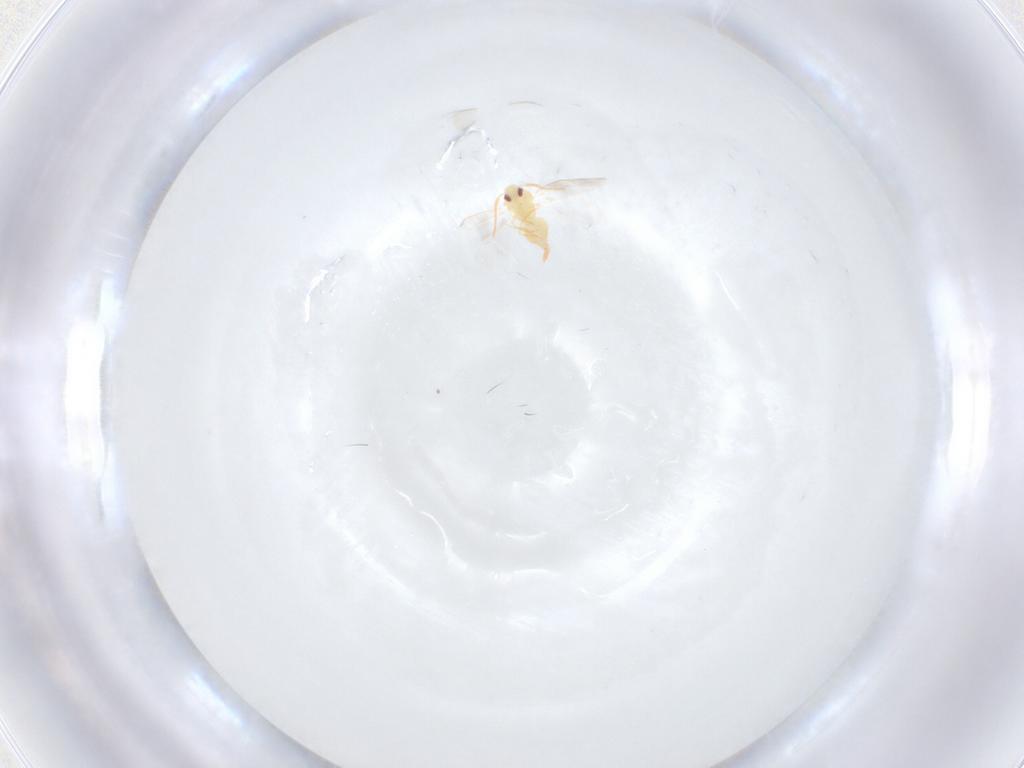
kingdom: Animalia
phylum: Arthropoda
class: Insecta
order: Hemiptera
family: Aleyrodidae
